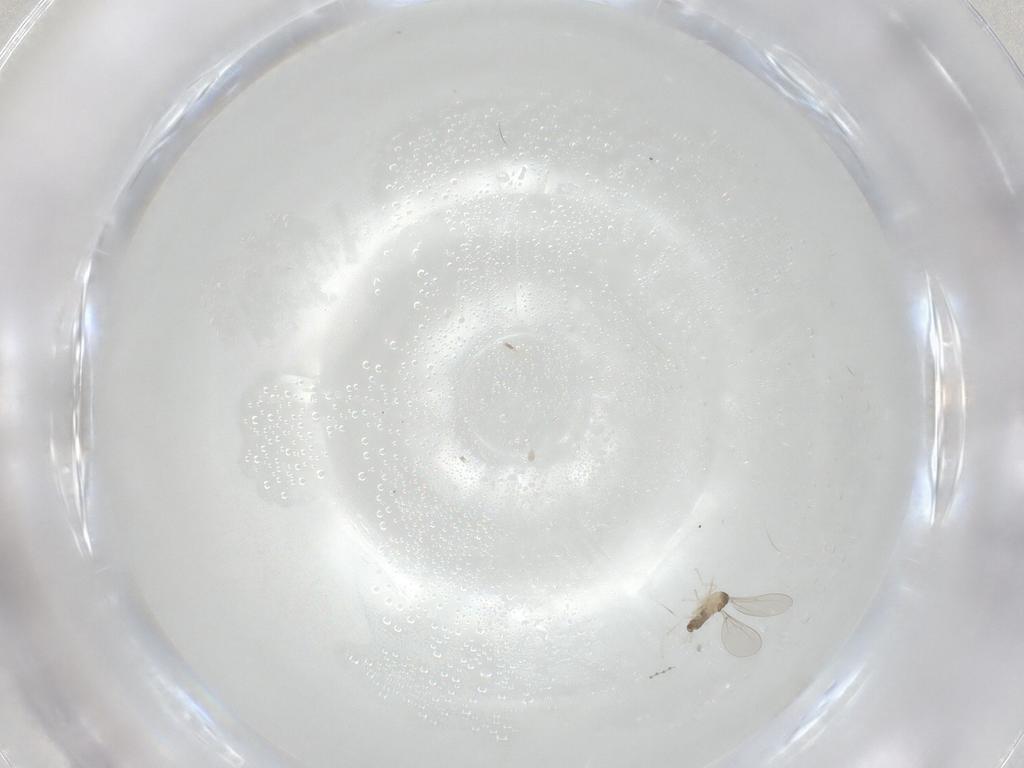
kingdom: Animalia
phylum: Arthropoda
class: Insecta
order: Diptera
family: Cecidomyiidae
